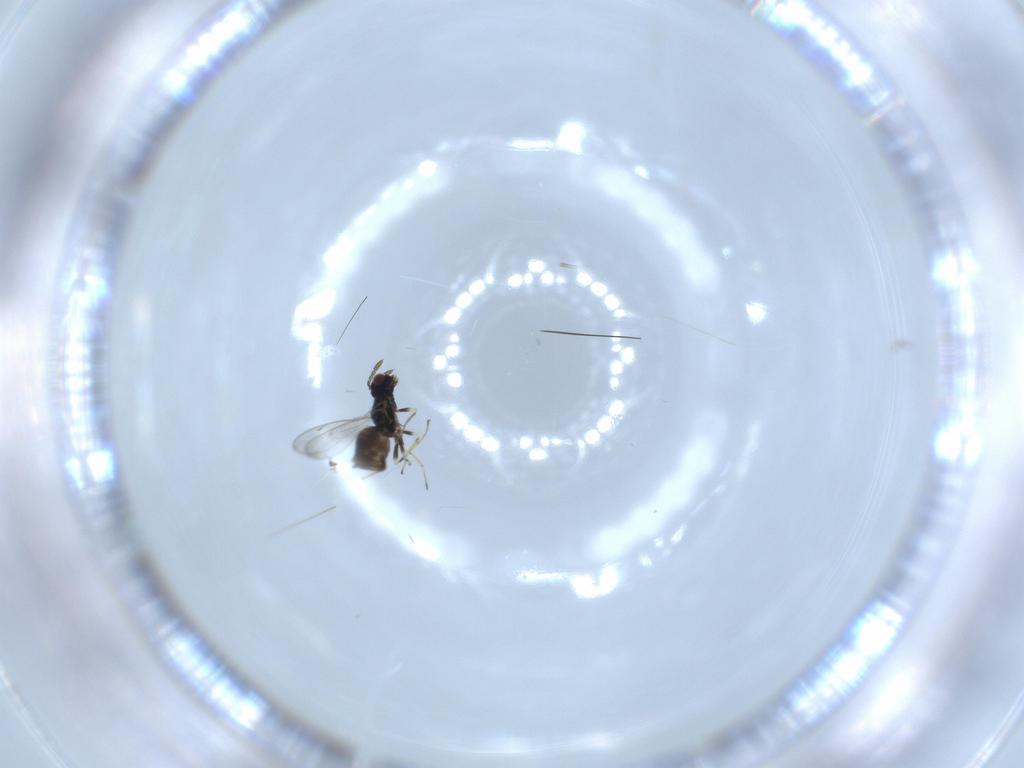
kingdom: Animalia
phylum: Arthropoda
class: Insecta
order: Hymenoptera
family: Eulophidae
